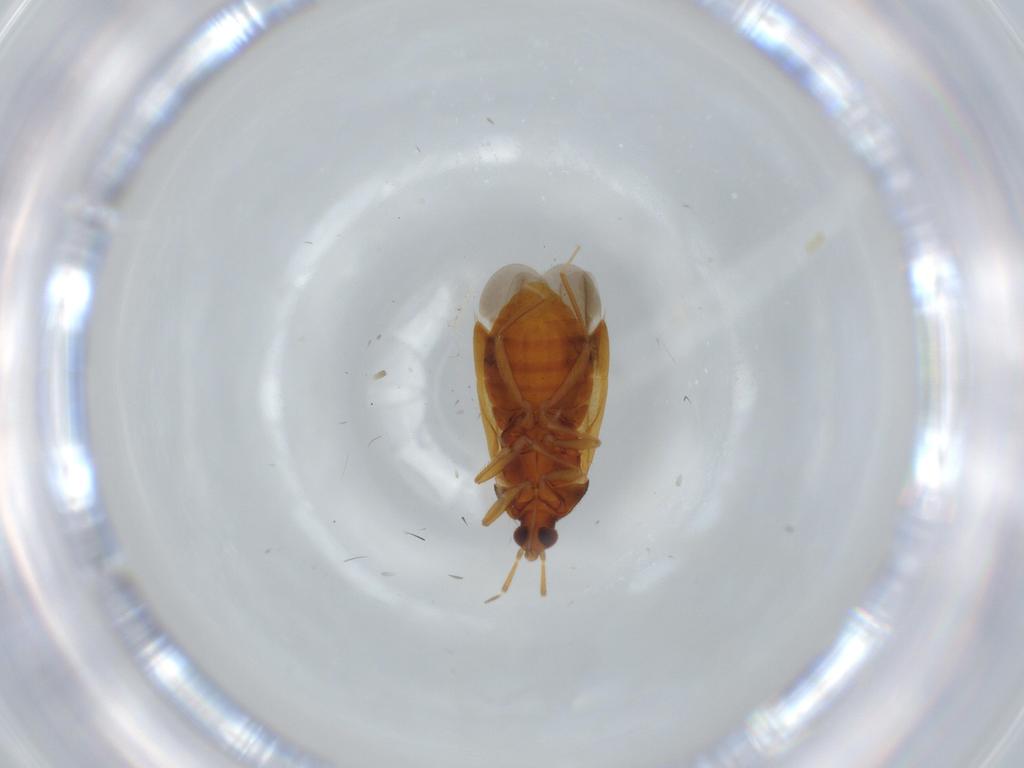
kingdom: Animalia
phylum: Arthropoda
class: Insecta
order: Hemiptera
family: Anthocoridae
